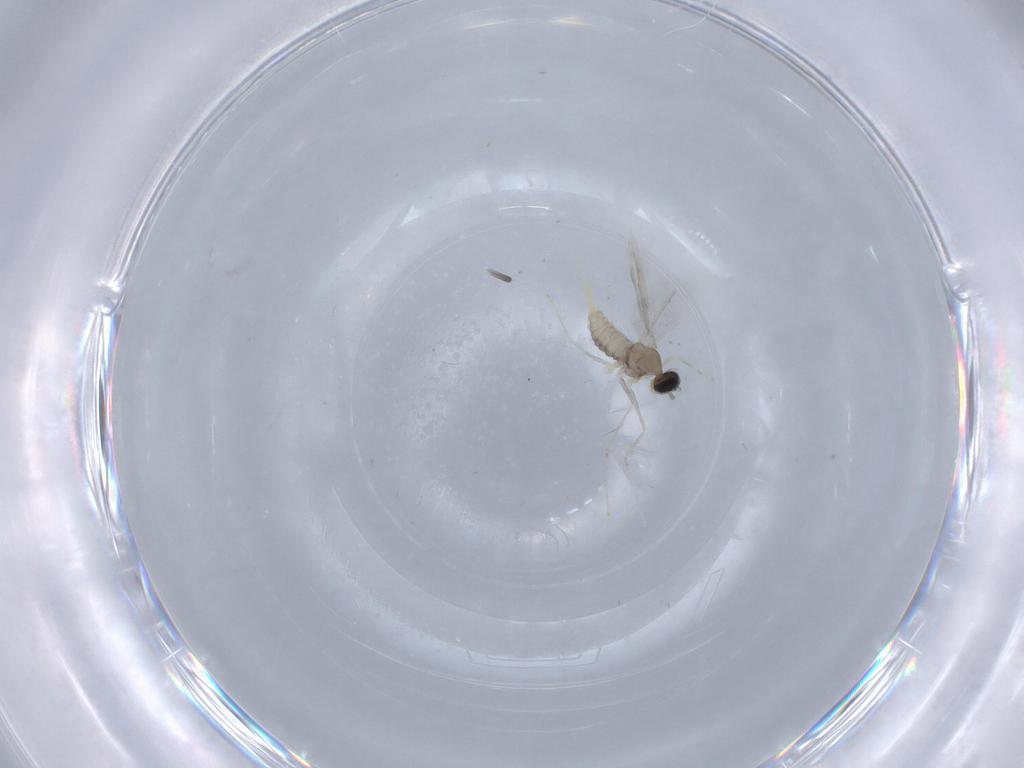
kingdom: Animalia
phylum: Arthropoda
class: Insecta
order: Diptera
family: Cecidomyiidae
